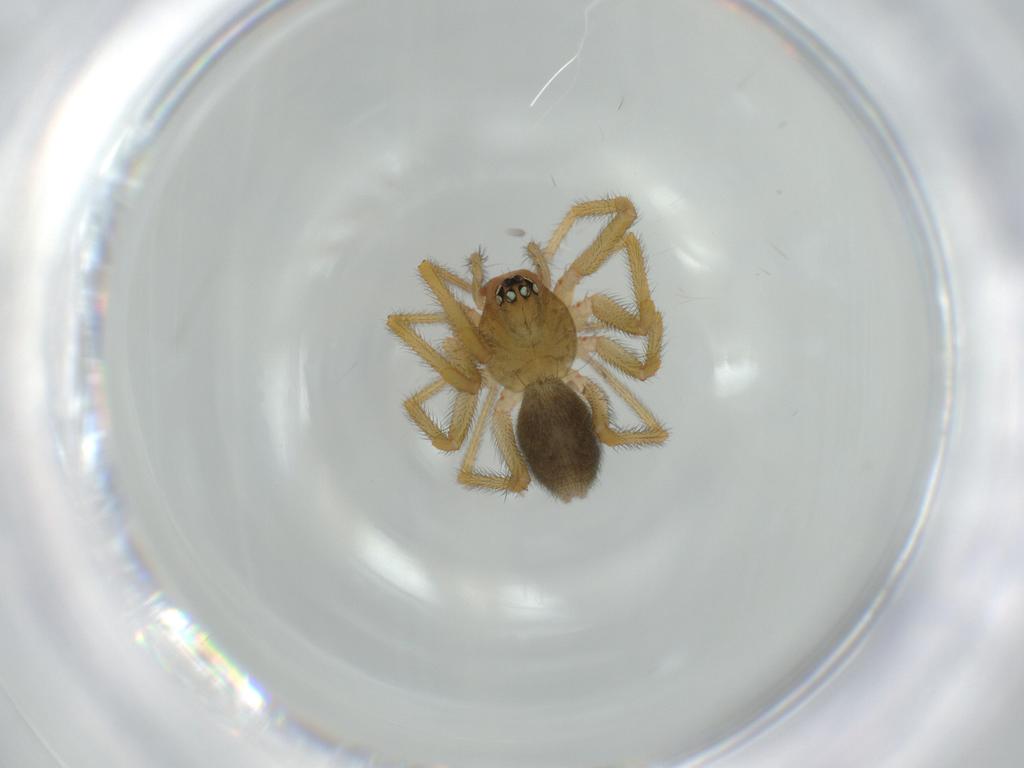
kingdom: Animalia
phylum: Arthropoda
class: Arachnida
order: Araneae
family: Linyphiidae
